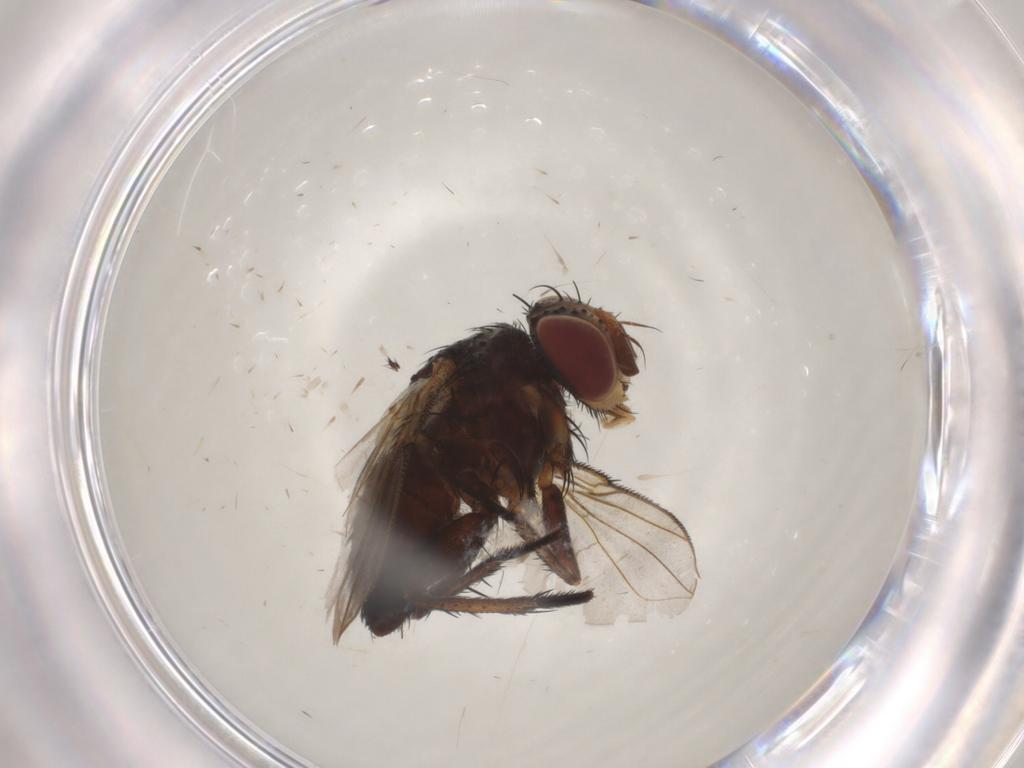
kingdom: Animalia
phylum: Arthropoda
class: Insecta
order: Diptera
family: Tachinidae
